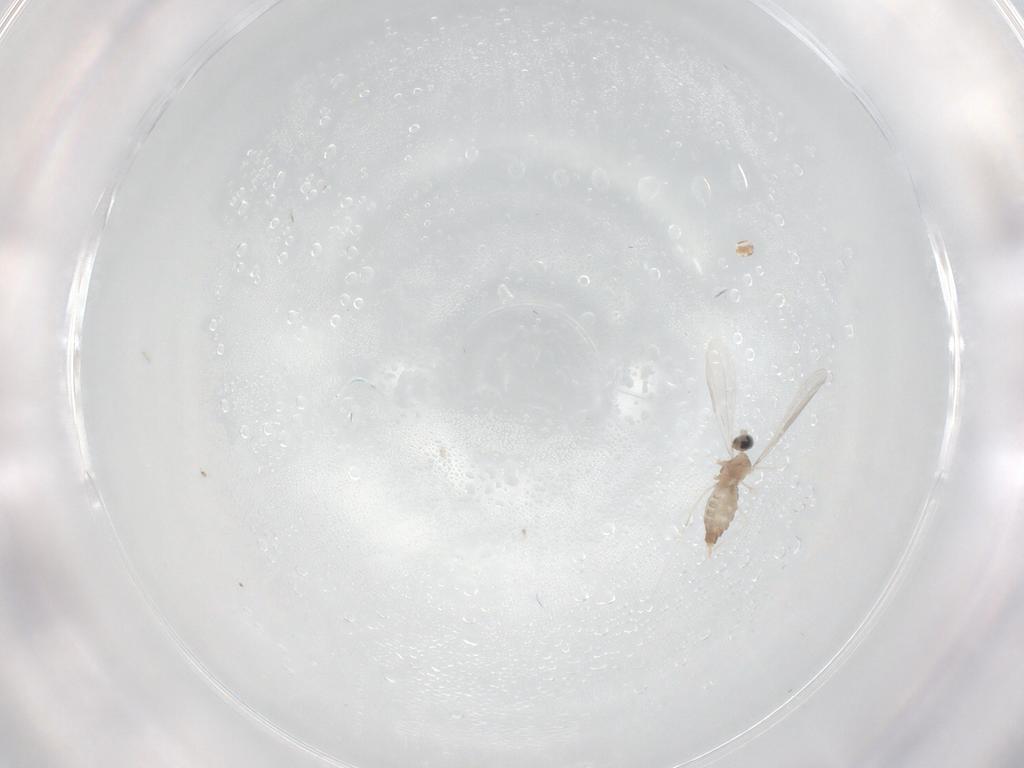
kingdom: Animalia
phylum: Arthropoda
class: Insecta
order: Diptera
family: Cecidomyiidae
